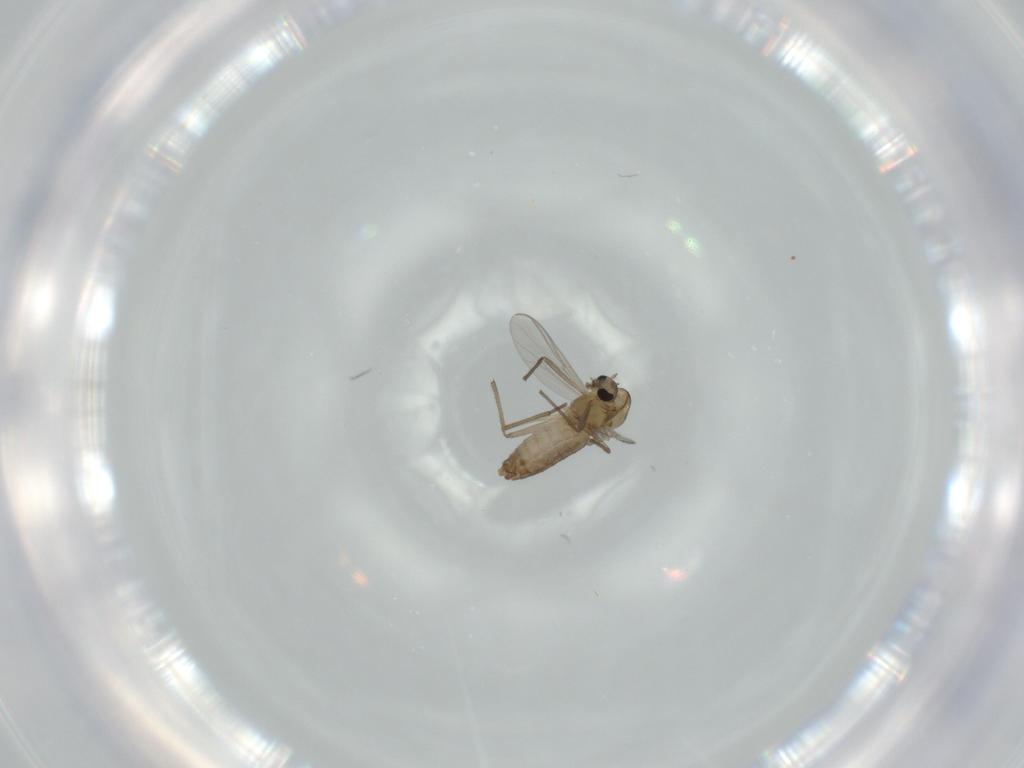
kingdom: Animalia
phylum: Arthropoda
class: Insecta
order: Diptera
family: Chironomidae
